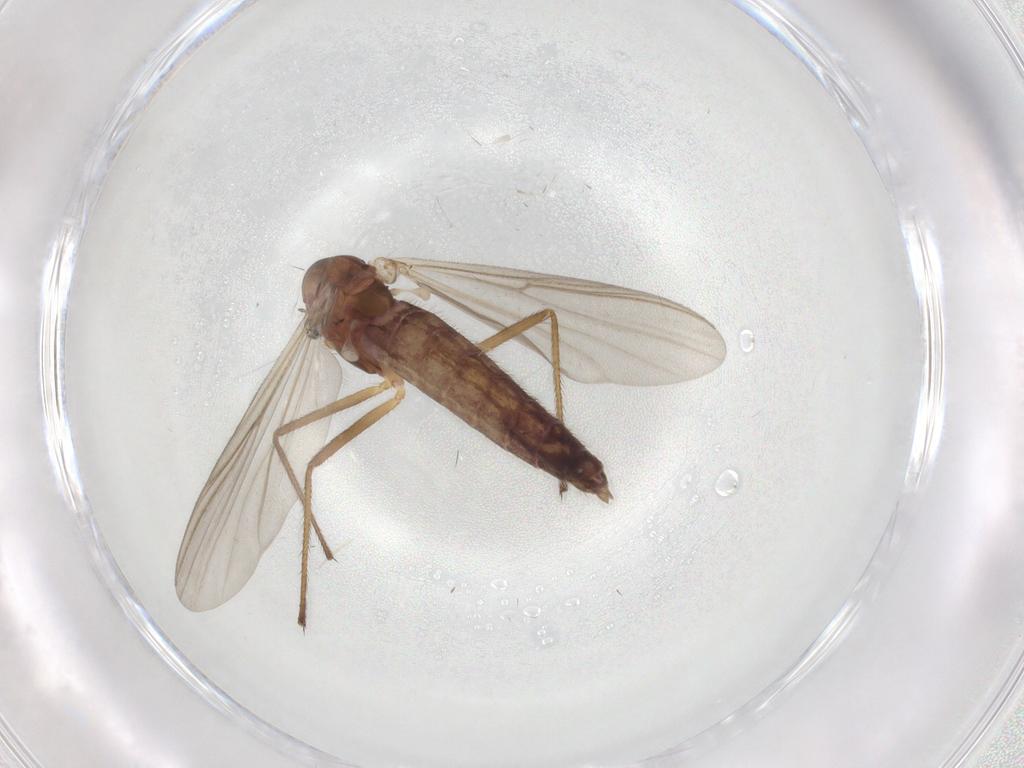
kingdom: Animalia
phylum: Arthropoda
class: Insecta
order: Diptera
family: Chironomidae
